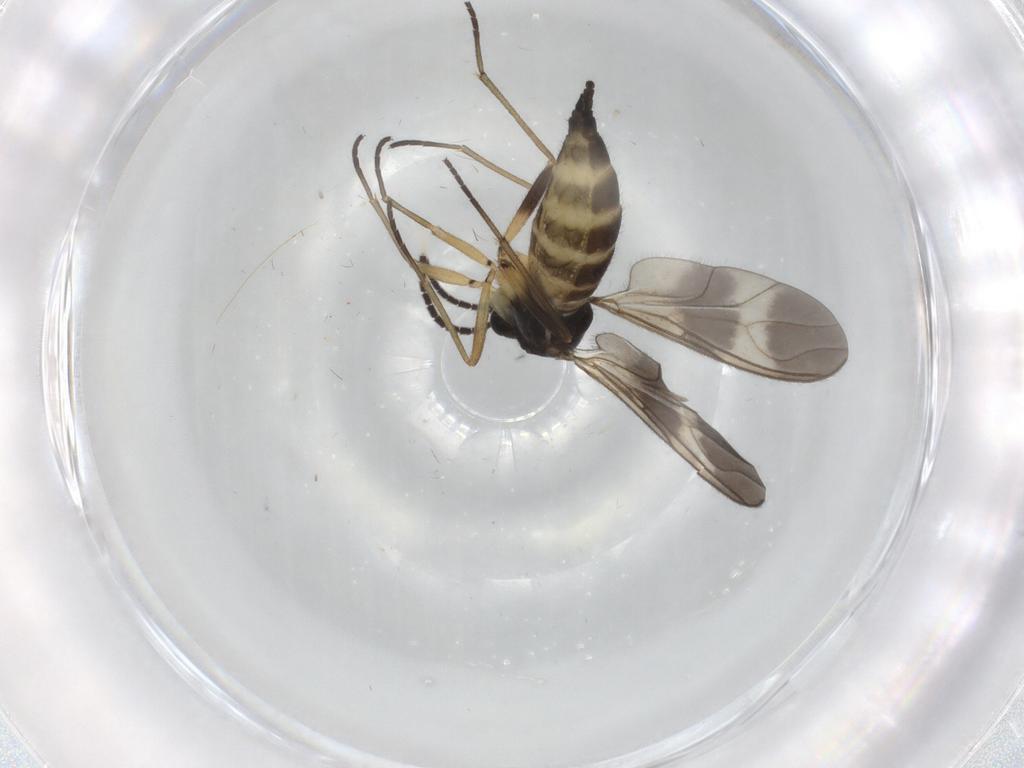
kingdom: Animalia
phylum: Arthropoda
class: Insecta
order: Diptera
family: Sciaridae
